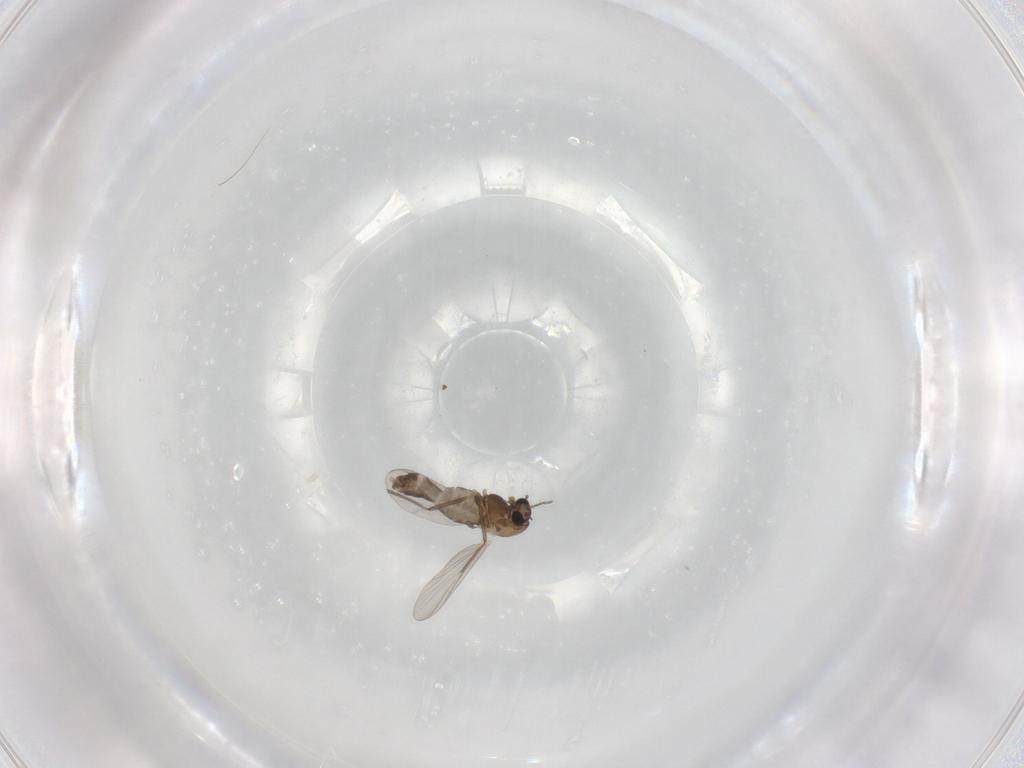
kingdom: Animalia
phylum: Arthropoda
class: Insecta
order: Diptera
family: Chironomidae
